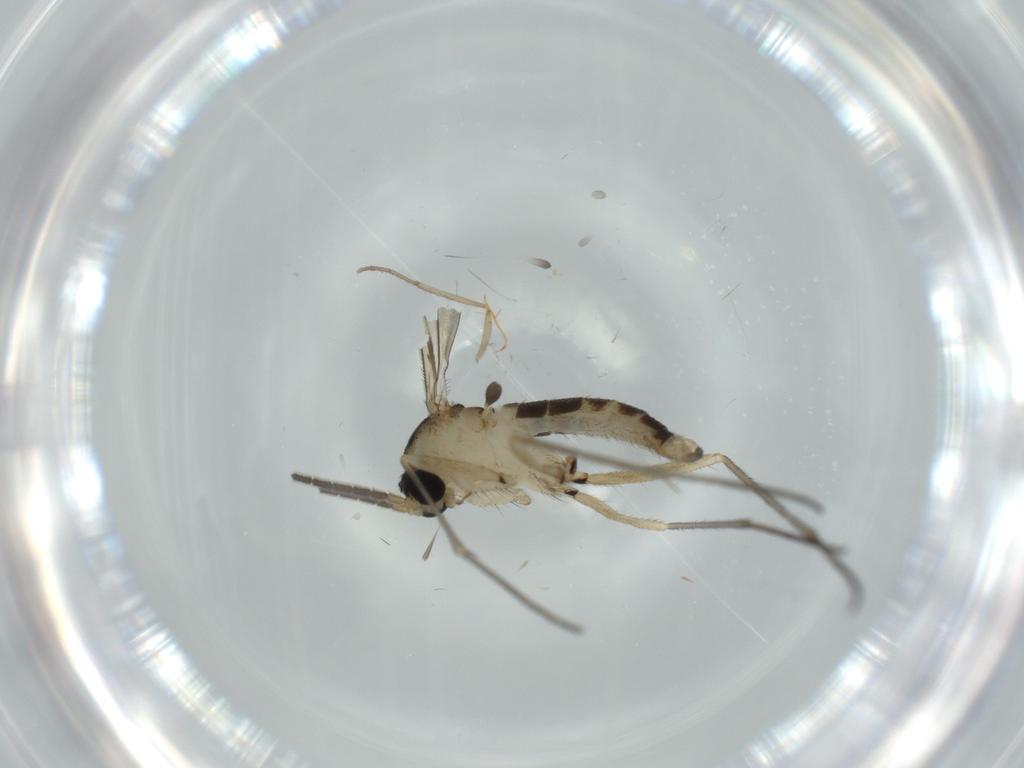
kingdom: Animalia
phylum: Arthropoda
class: Insecta
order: Diptera
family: Sciaridae
